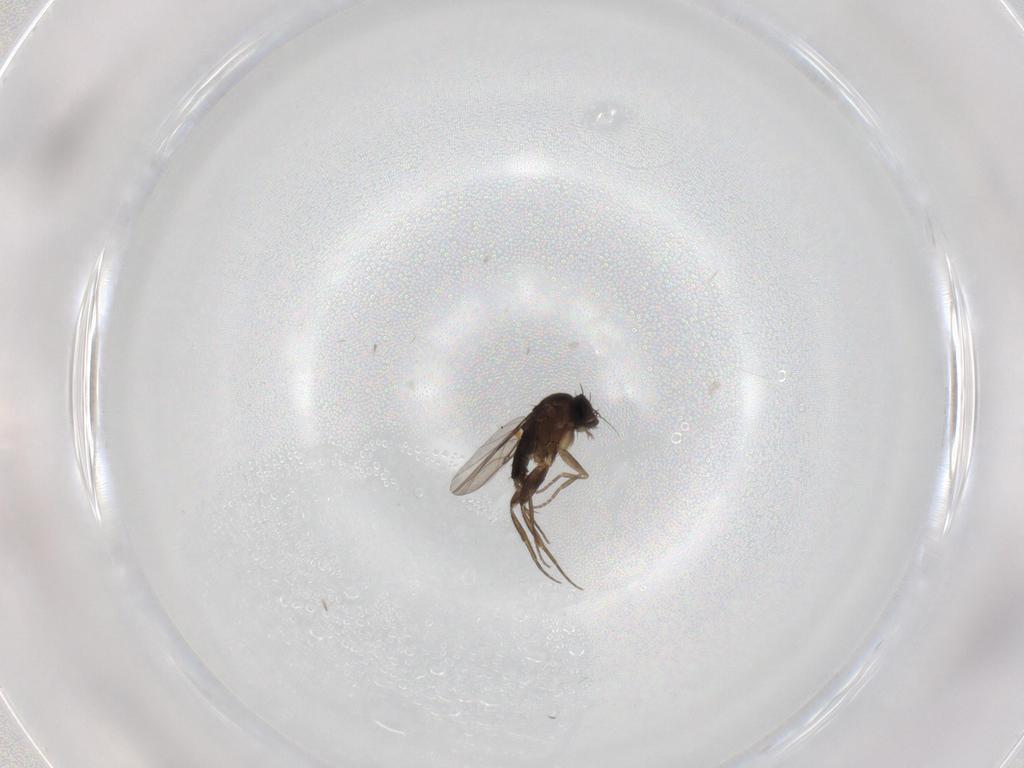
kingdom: Animalia
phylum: Arthropoda
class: Insecta
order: Diptera
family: Phoridae
